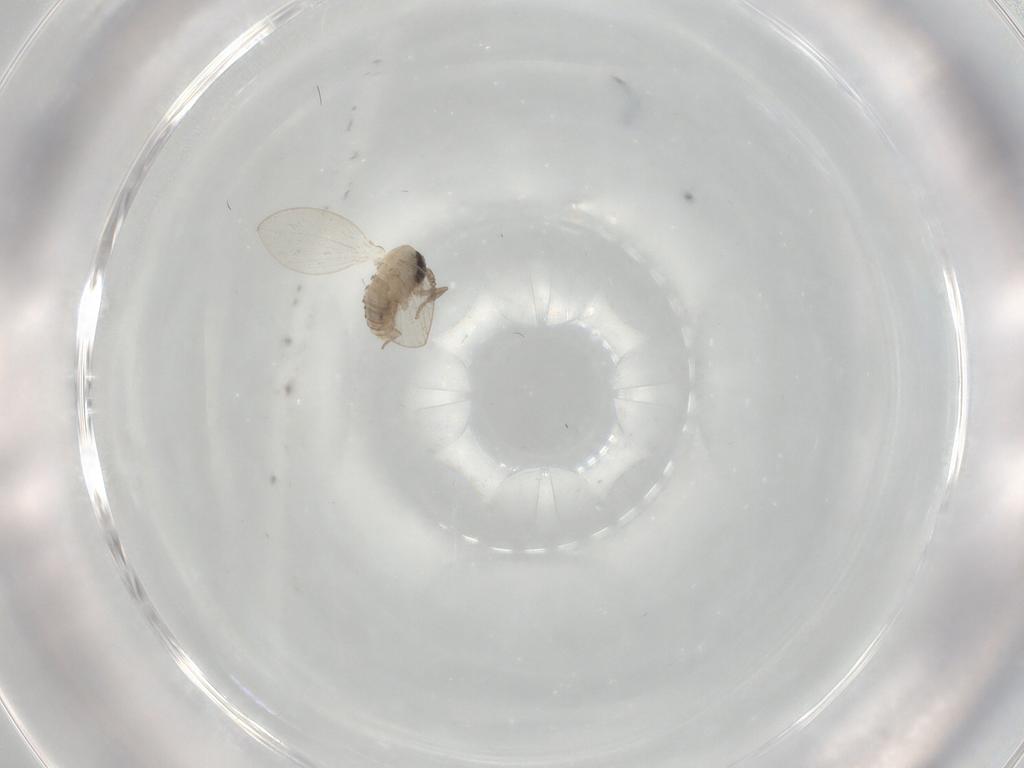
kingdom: Animalia
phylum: Arthropoda
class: Insecta
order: Diptera
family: Psychodidae
